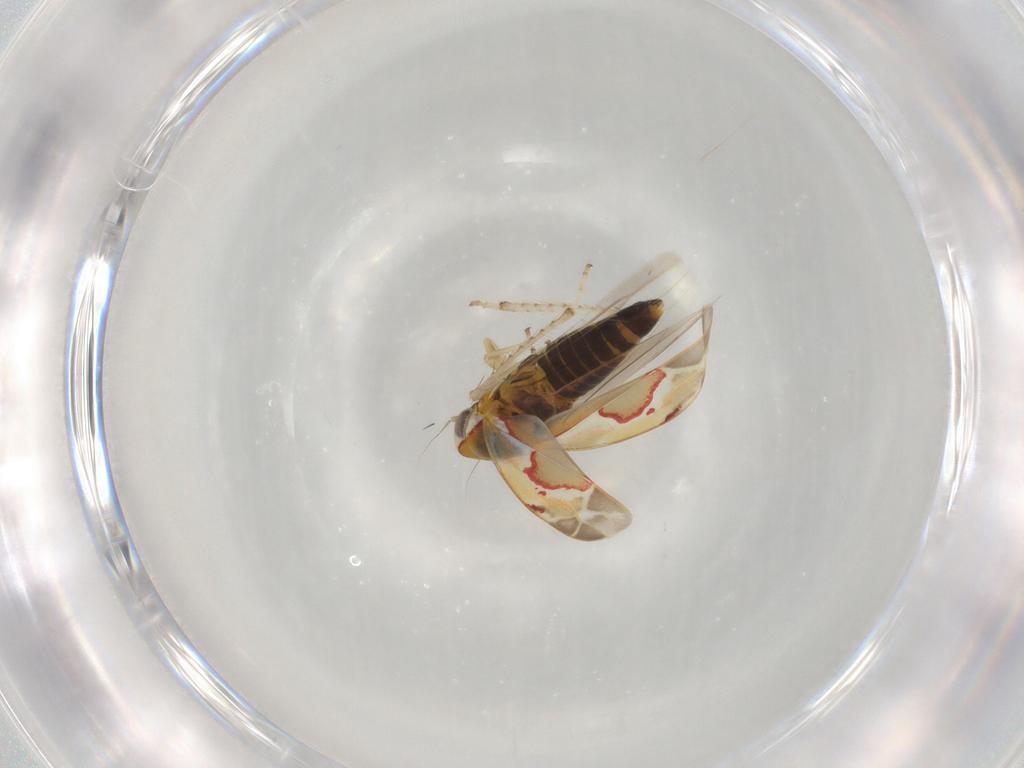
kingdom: Animalia
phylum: Arthropoda
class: Insecta
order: Hemiptera
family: Cicadellidae
